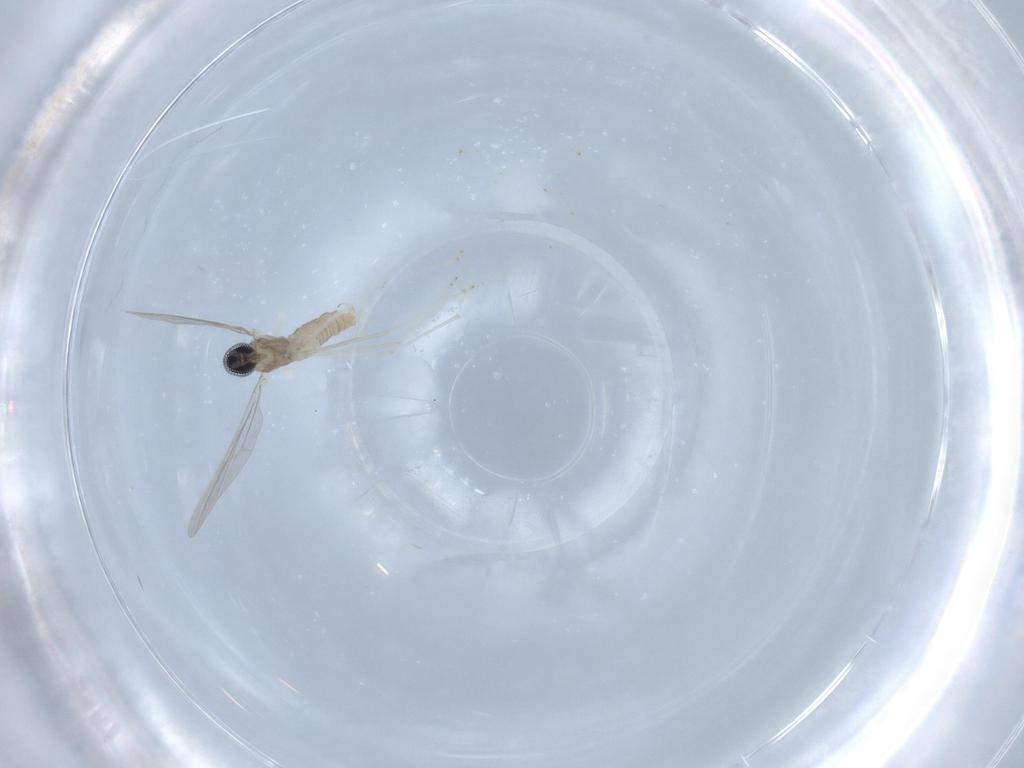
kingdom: Animalia
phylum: Arthropoda
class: Insecta
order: Diptera
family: Cecidomyiidae
